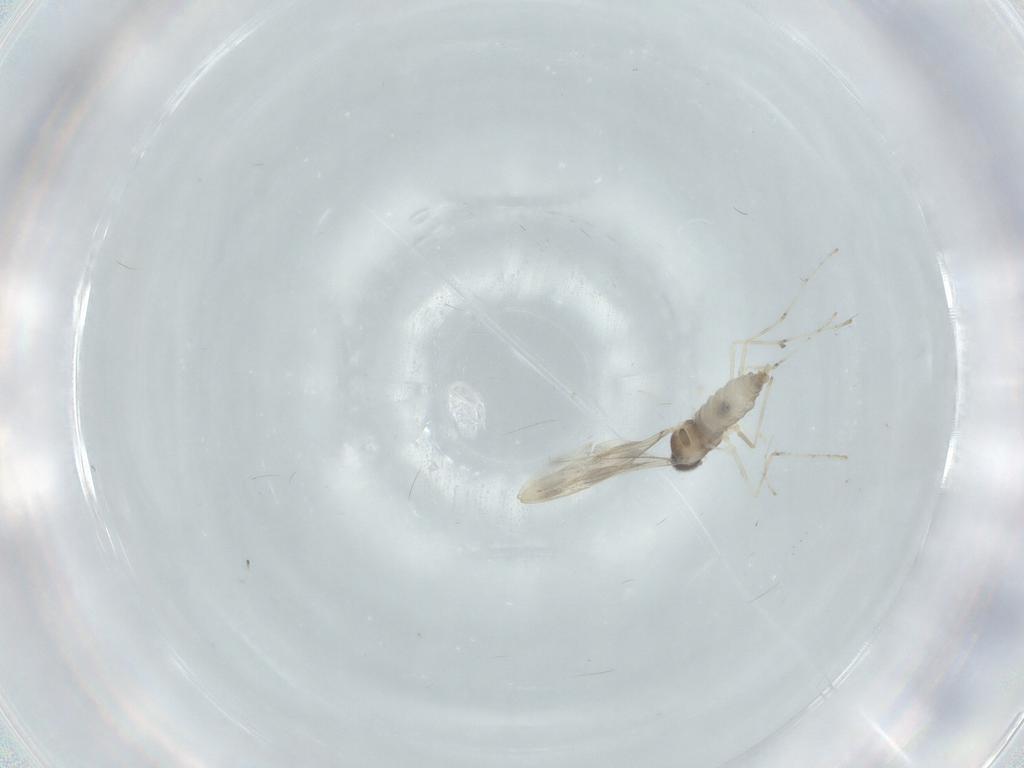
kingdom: Animalia
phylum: Arthropoda
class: Insecta
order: Diptera
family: Cecidomyiidae
